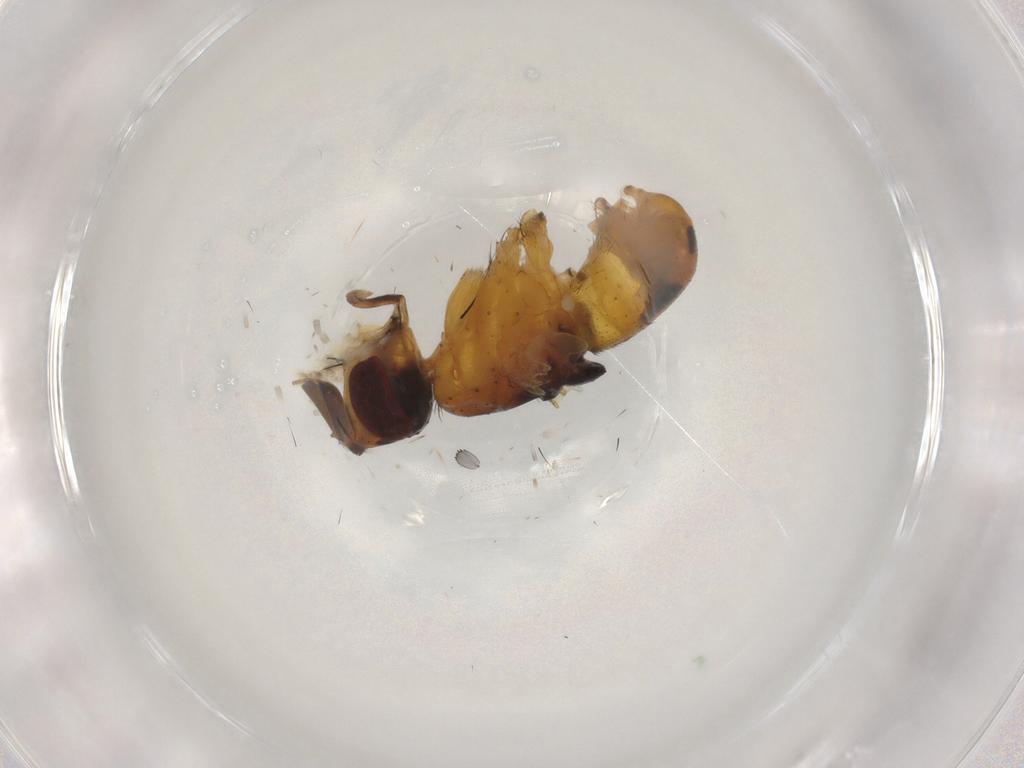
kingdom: Animalia
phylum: Arthropoda
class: Insecta
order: Diptera
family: Muscidae
